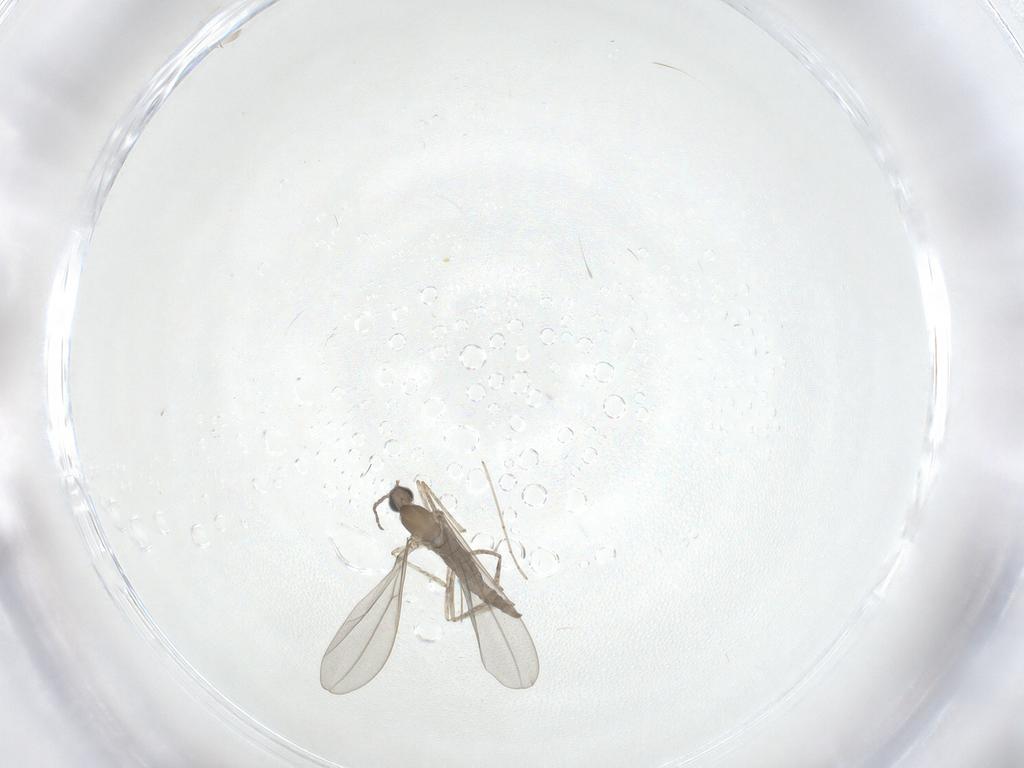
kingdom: Animalia
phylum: Arthropoda
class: Insecta
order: Diptera
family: Cecidomyiidae
